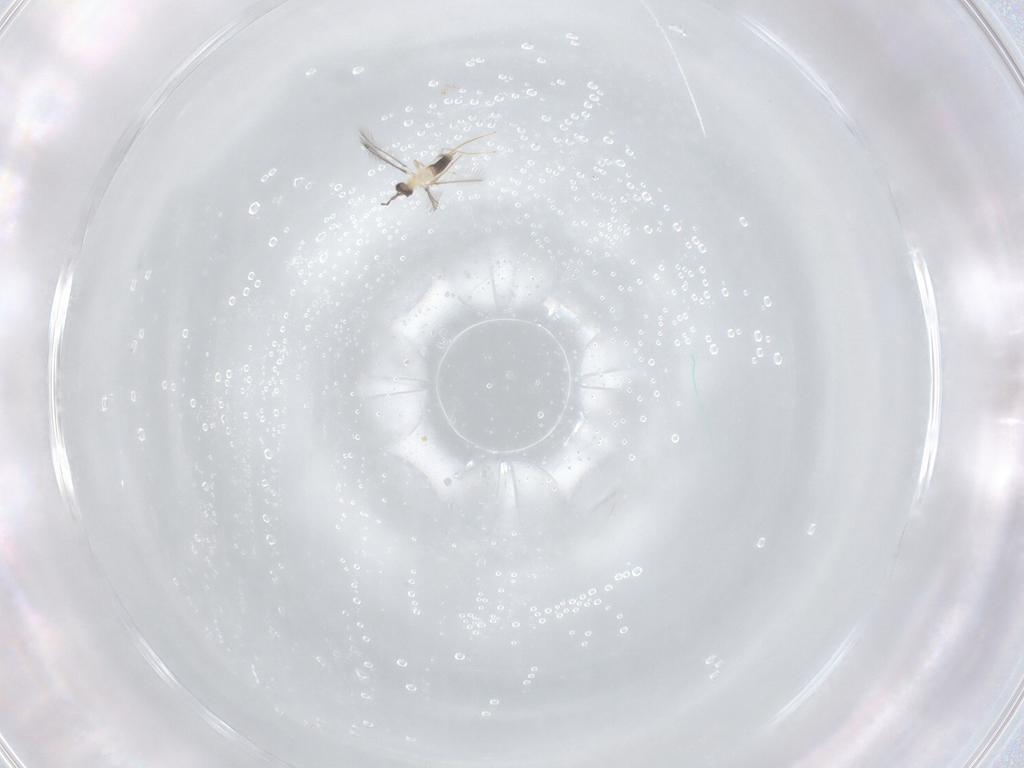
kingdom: Animalia
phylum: Arthropoda
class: Insecta
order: Hymenoptera
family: Mymaridae
